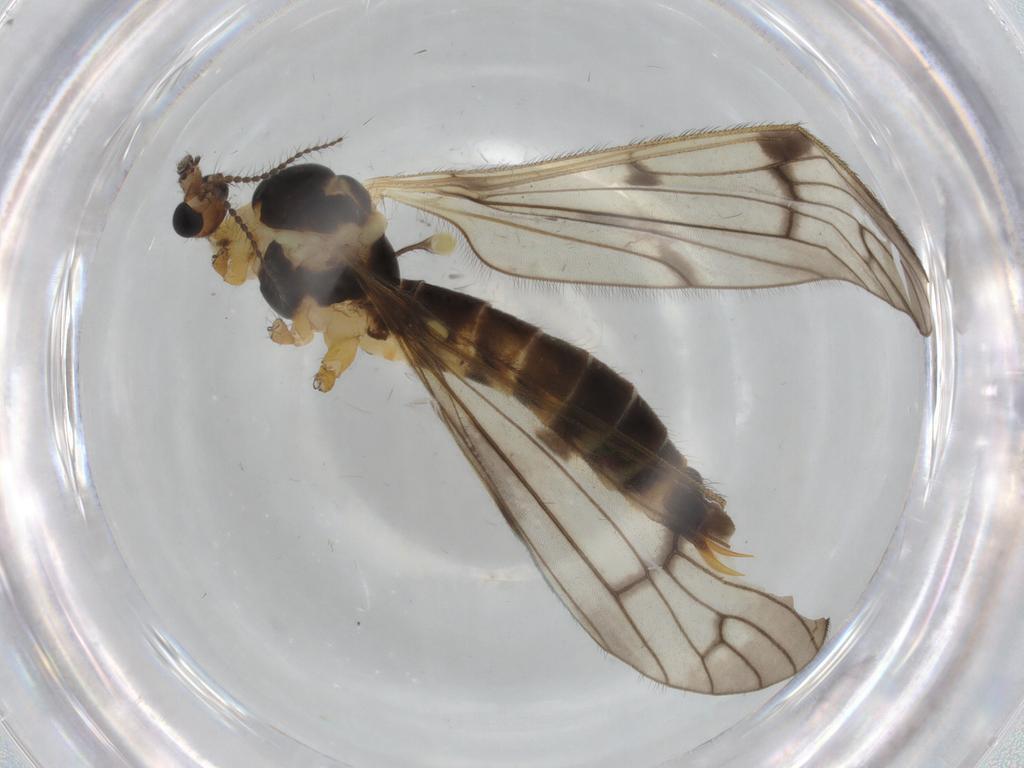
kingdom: Animalia
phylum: Arthropoda
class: Insecta
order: Diptera
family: Limoniidae
